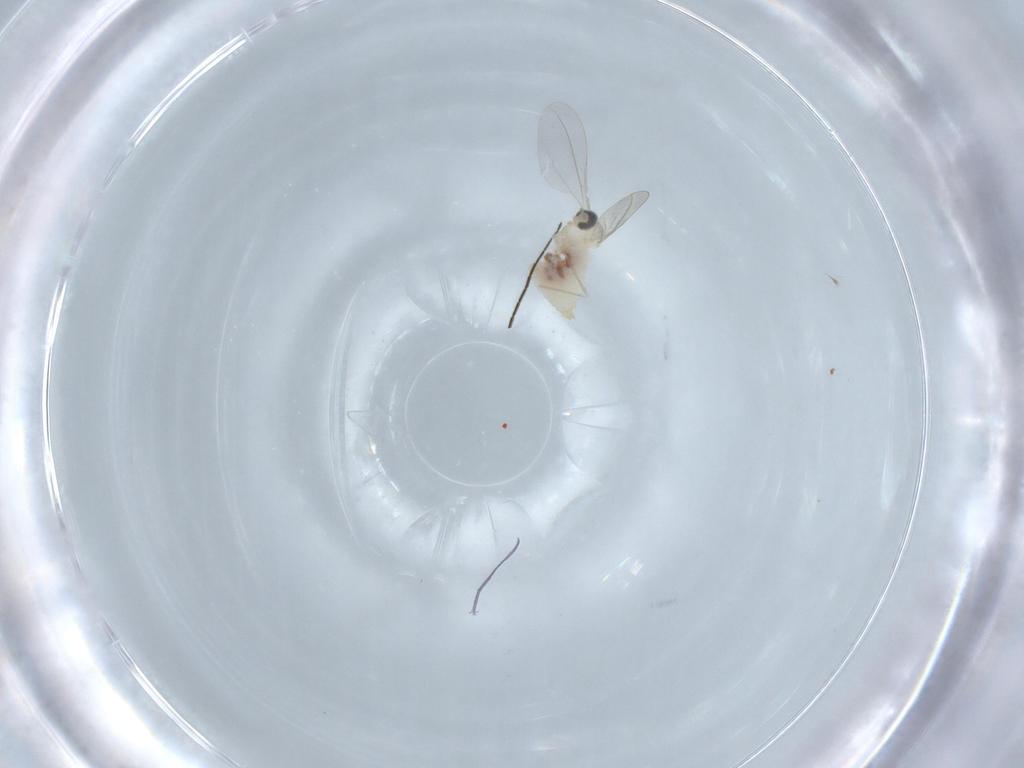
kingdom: Animalia
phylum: Arthropoda
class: Insecta
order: Diptera
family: Cecidomyiidae
